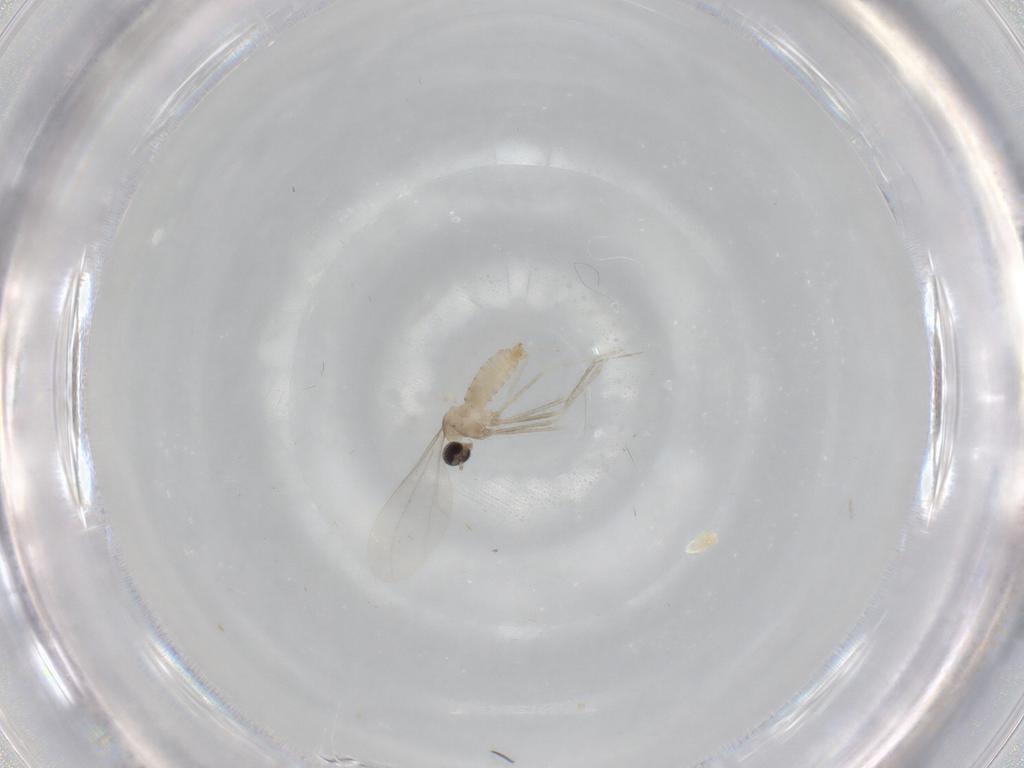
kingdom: Animalia
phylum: Arthropoda
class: Insecta
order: Diptera
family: Cecidomyiidae
